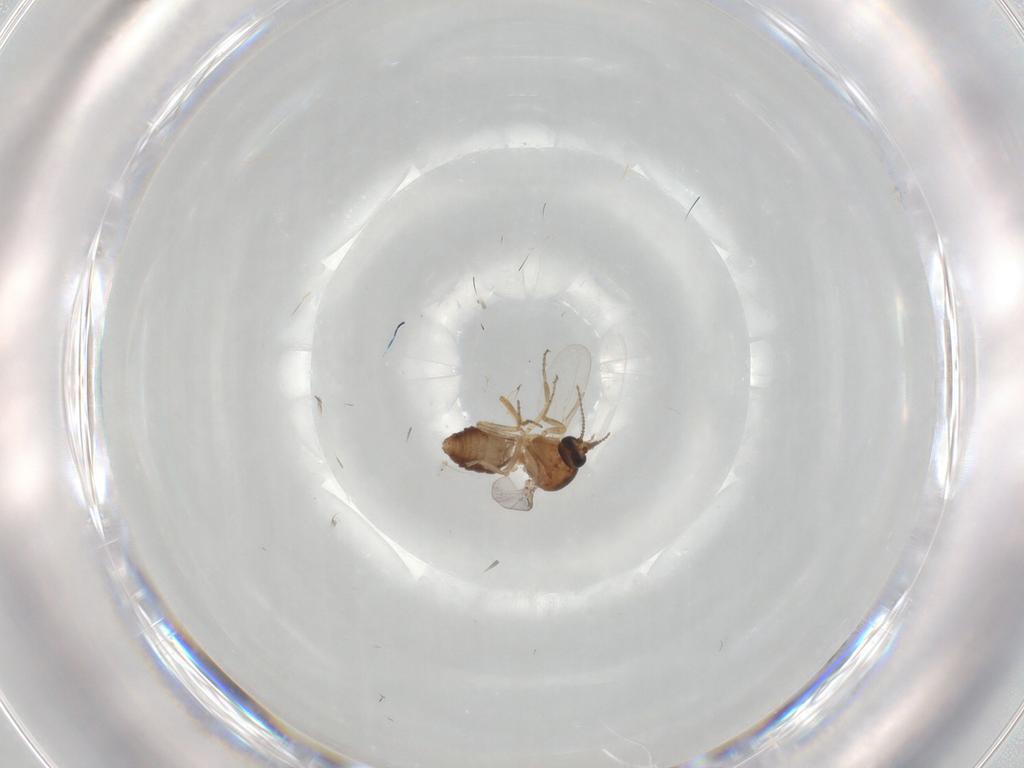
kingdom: Animalia
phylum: Arthropoda
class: Insecta
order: Diptera
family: Ceratopogonidae
